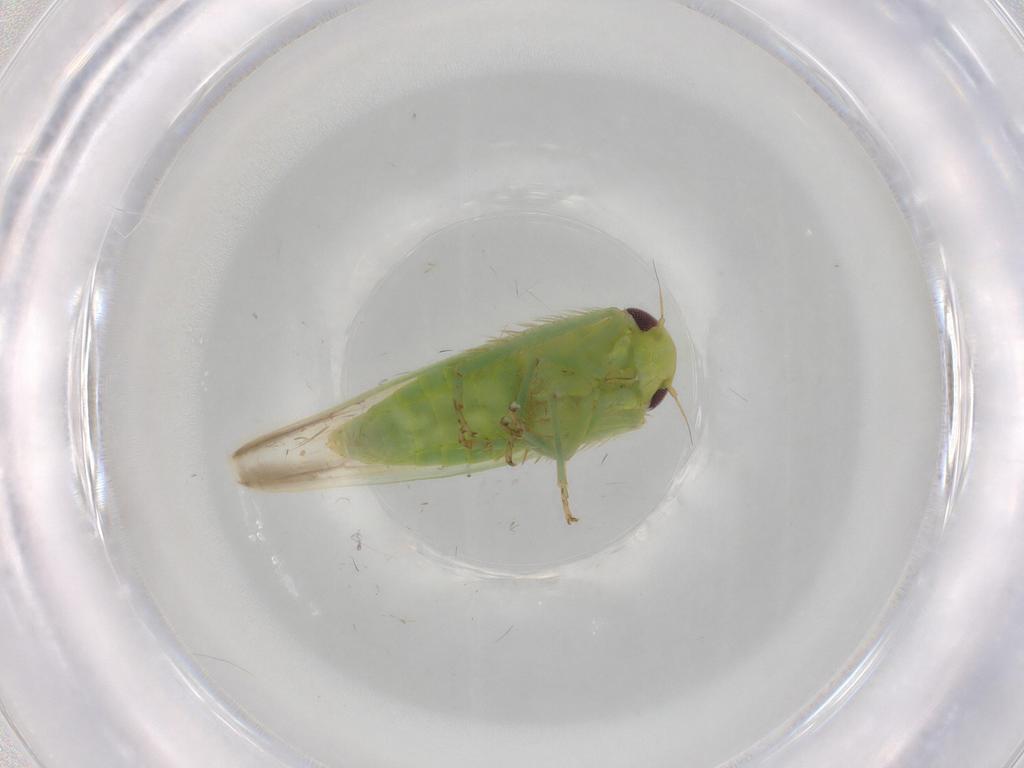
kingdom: Animalia
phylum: Arthropoda
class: Insecta
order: Hemiptera
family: Cicadellidae
